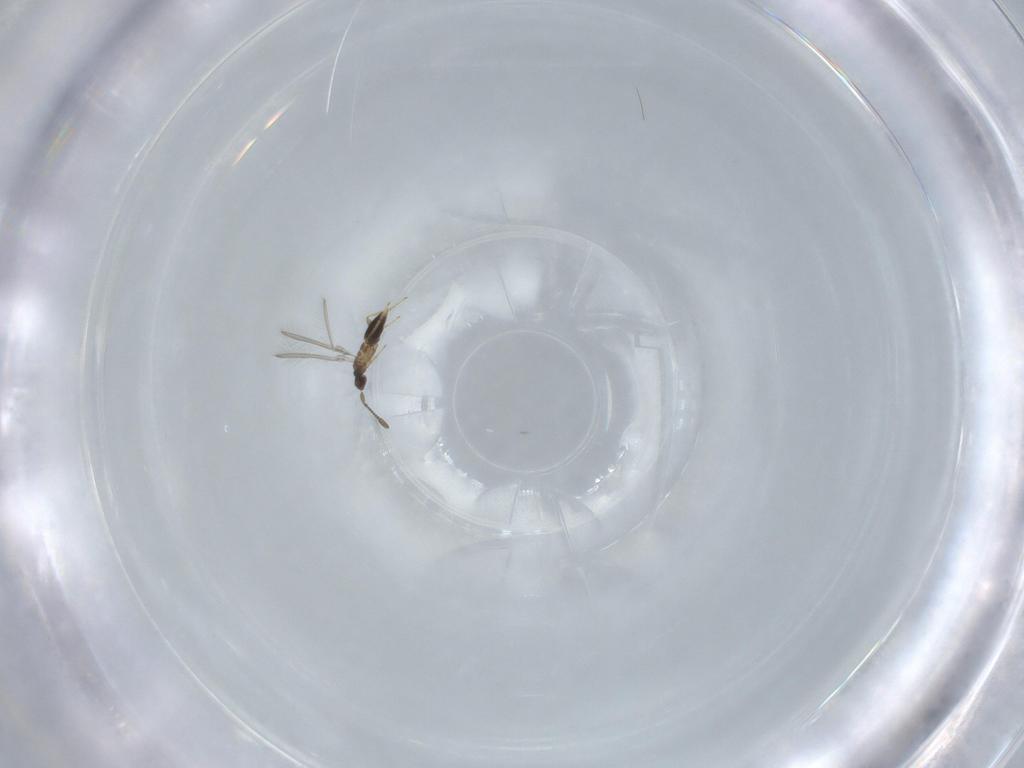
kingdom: Animalia
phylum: Arthropoda
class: Insecta
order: Hymenoptera
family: Mymaridae
